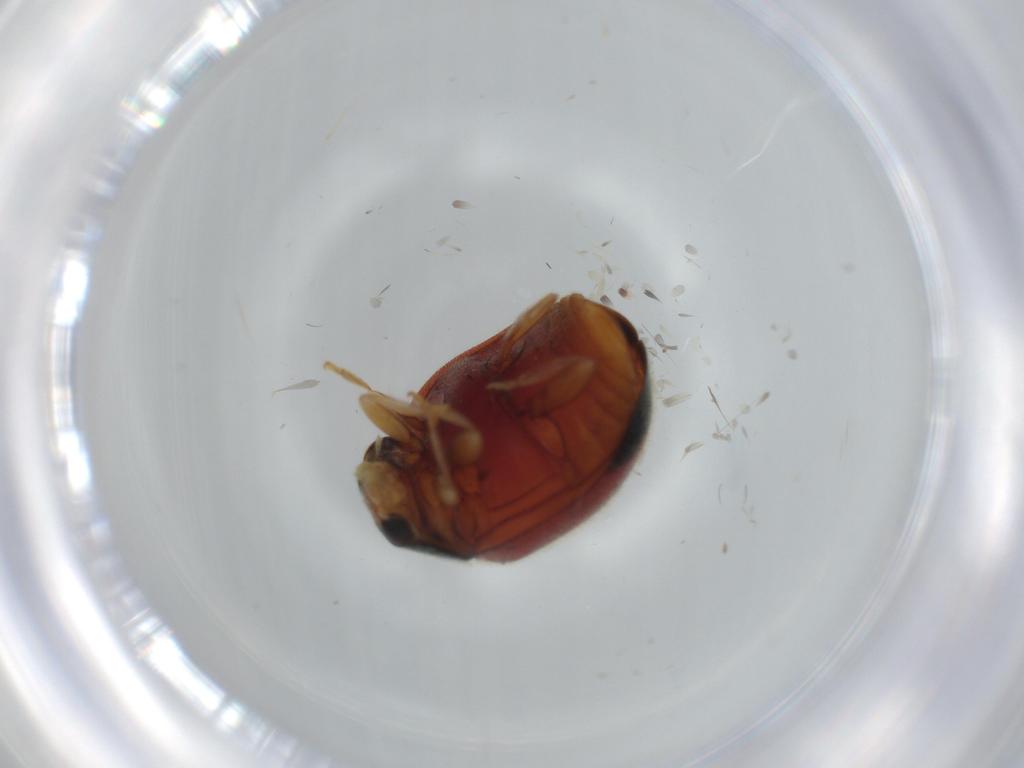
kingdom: Animalia
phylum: Arthropoda
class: Insecta
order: Coleoptera
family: Coccinellidae
